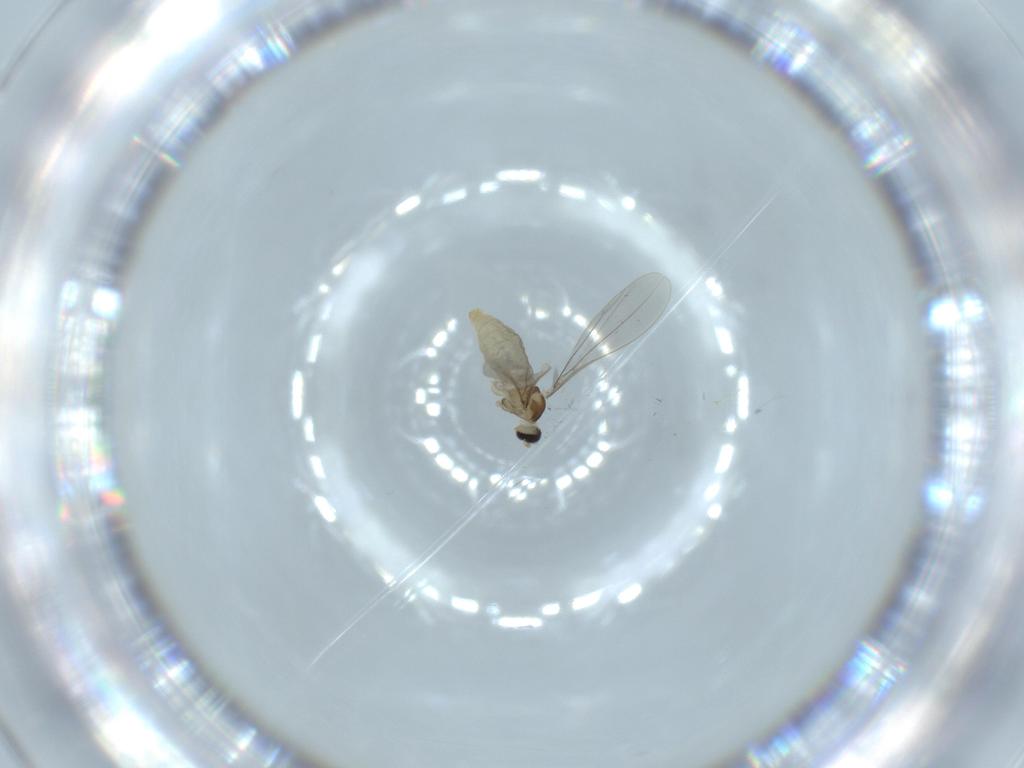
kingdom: Animalia
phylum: Arthropoda
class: Insecta
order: Diptera
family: Cecidomyiidae
